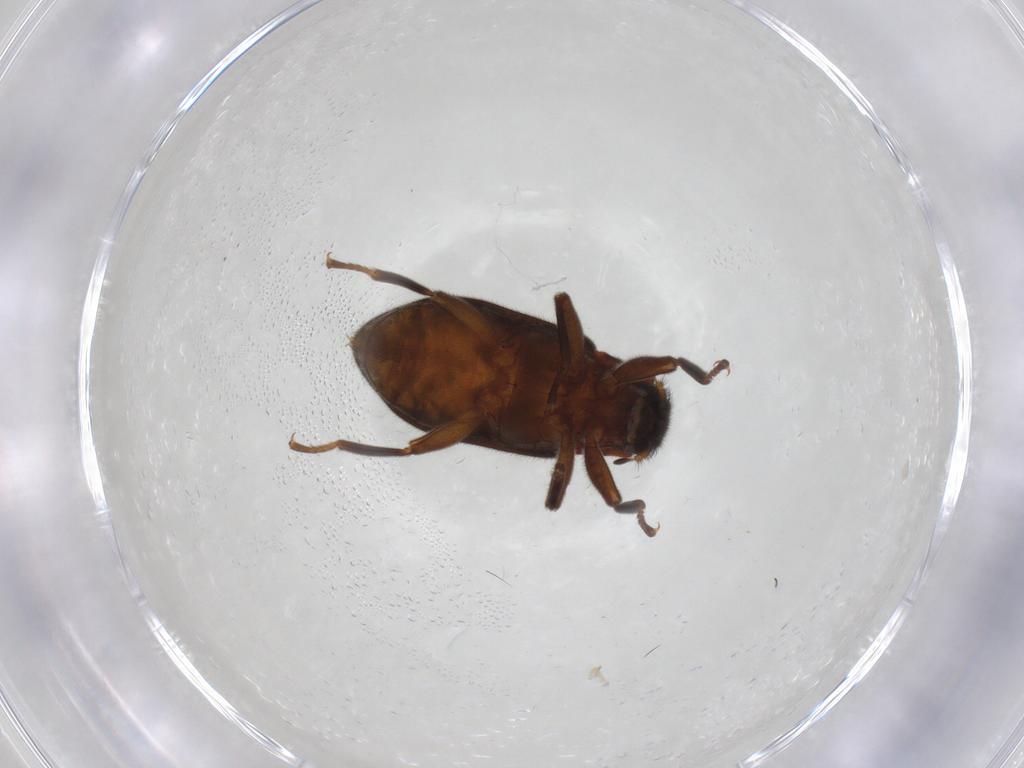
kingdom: Animalia
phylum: Arthropoda
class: Insecta
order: Coleoptera
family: Elmidae
